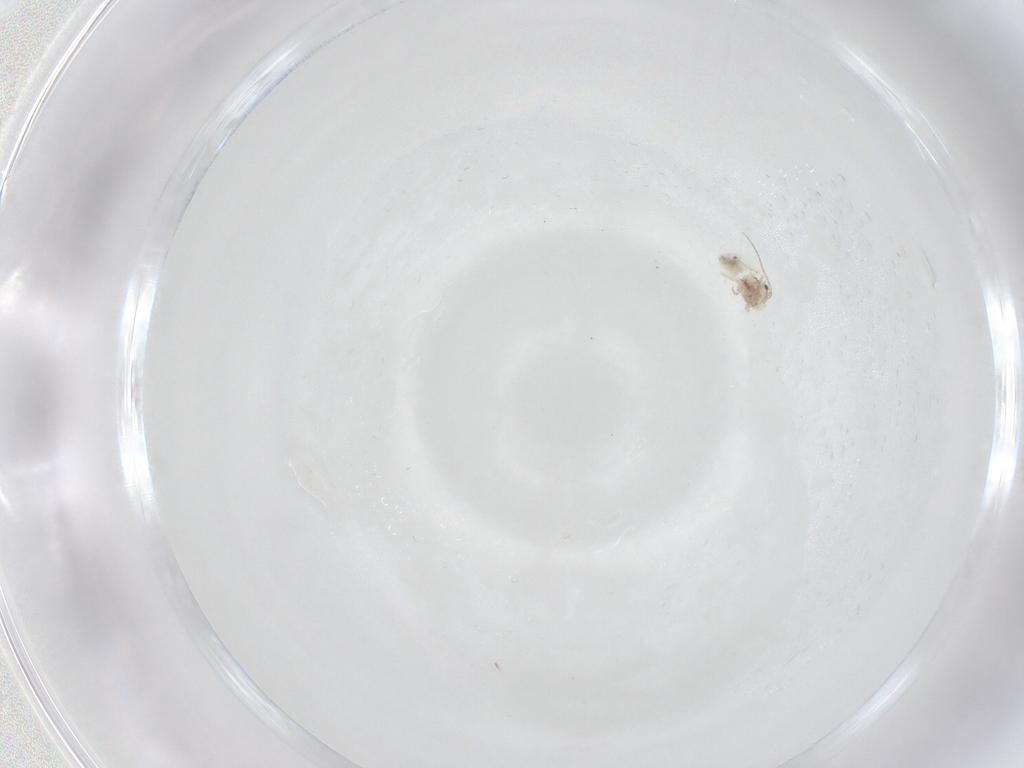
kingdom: Animalia
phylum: Arthropoda
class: Insecta
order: Psocodea
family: Lepidopsocidae
